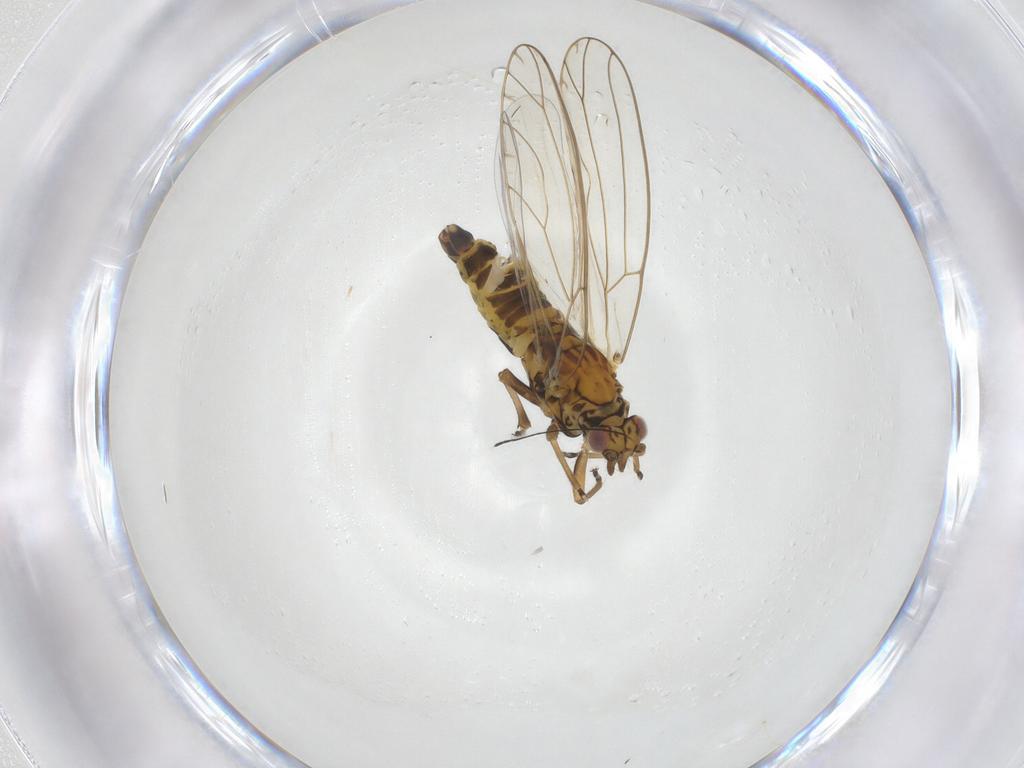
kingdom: Animalia
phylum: Arthropoda
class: Insecta
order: Hemiptera
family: Triozidae
